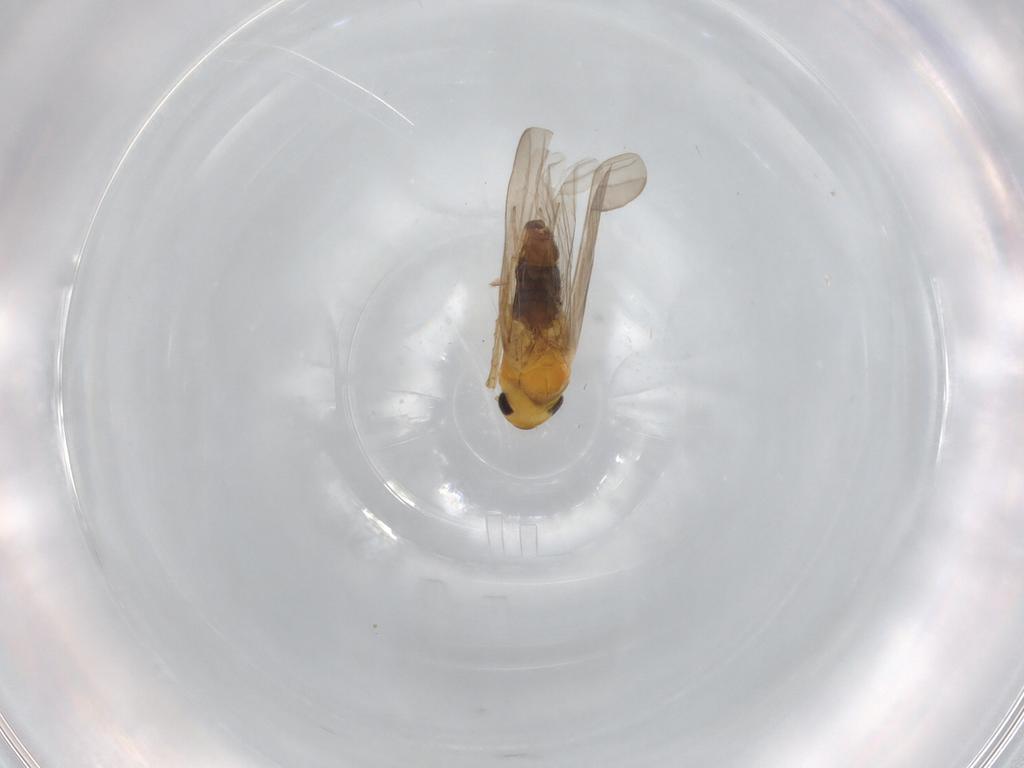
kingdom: Animalia
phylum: Arthropoda
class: Insecta
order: Hemiptera
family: Cicadellidae
